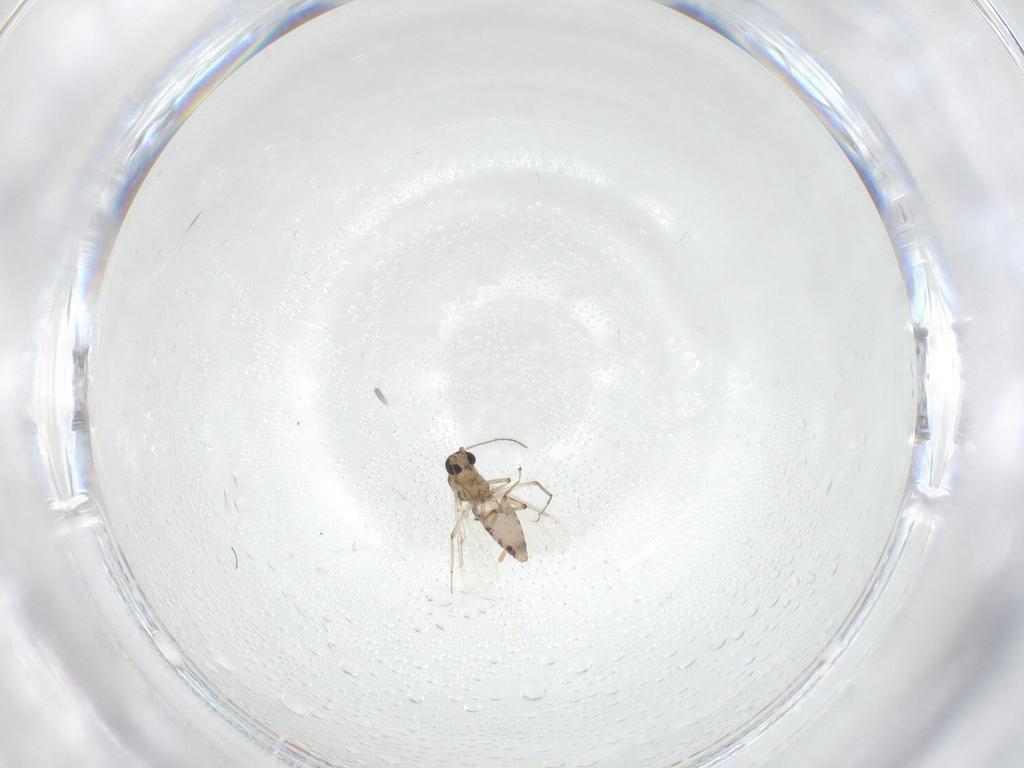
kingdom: Animalia
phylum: Arthropoda
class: Insecta
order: Diptera
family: Ceratopogonidae
